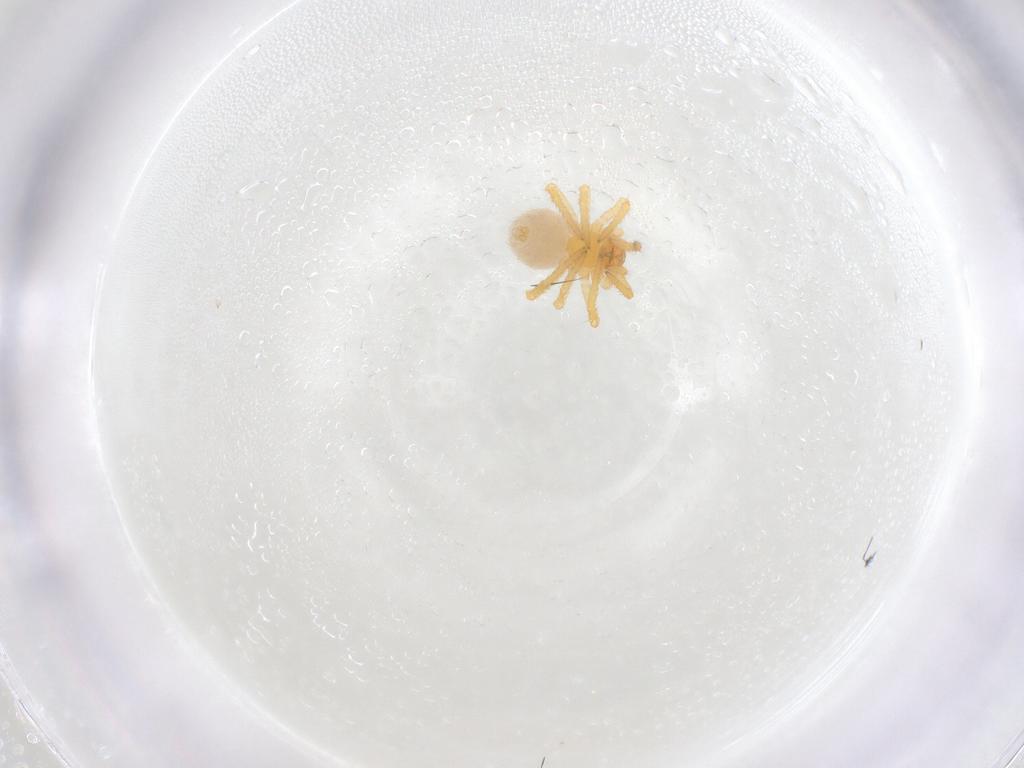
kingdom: Animalia
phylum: Arthropoda
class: Arachnida
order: Araneae
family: Theridiidae
